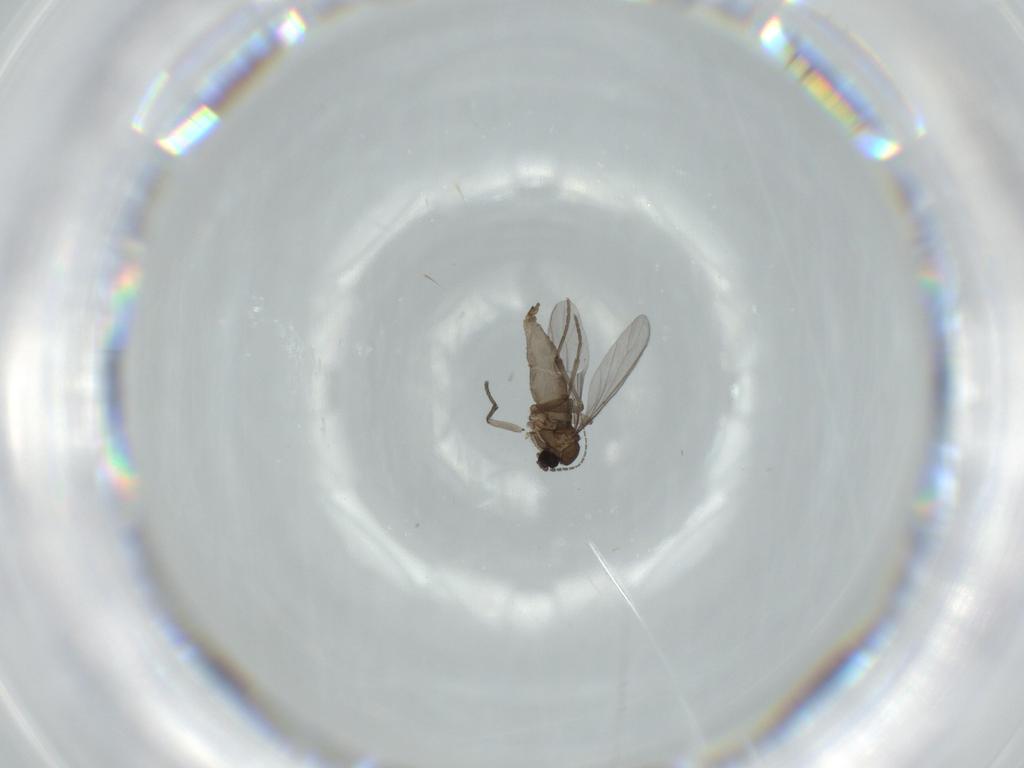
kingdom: Animalia
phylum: Arthropoda
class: Insecta
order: Diptera
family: Sciaridae
